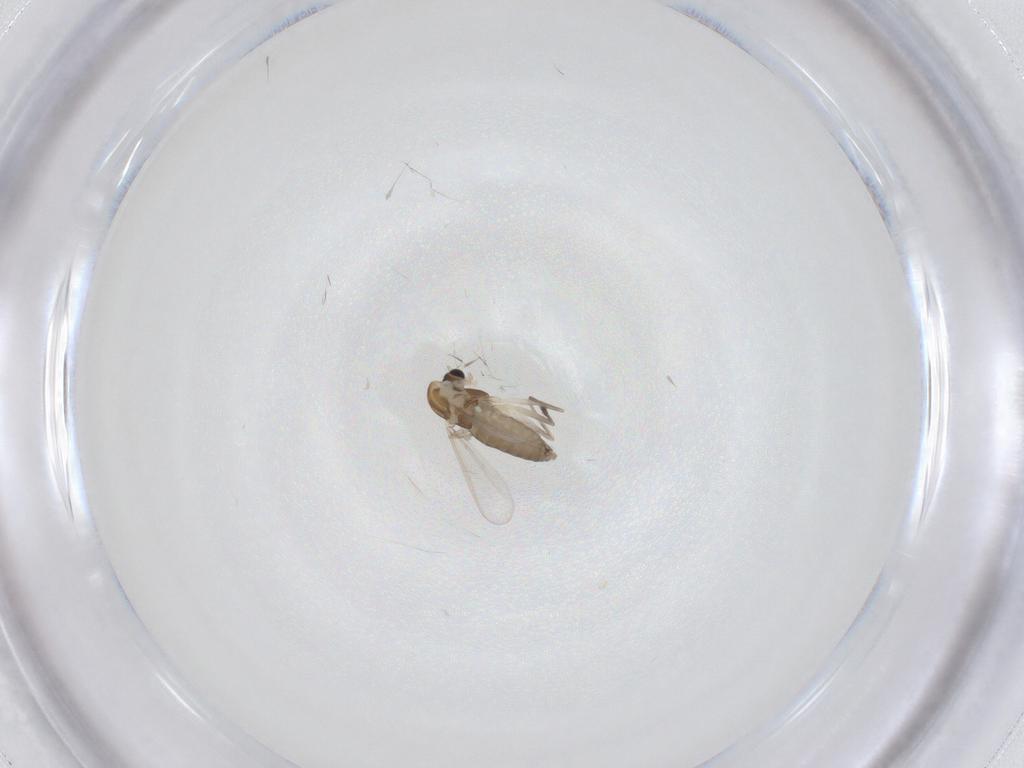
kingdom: Animalia
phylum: Arthropoda
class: Insecta
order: Diptera
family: Chironomidae
